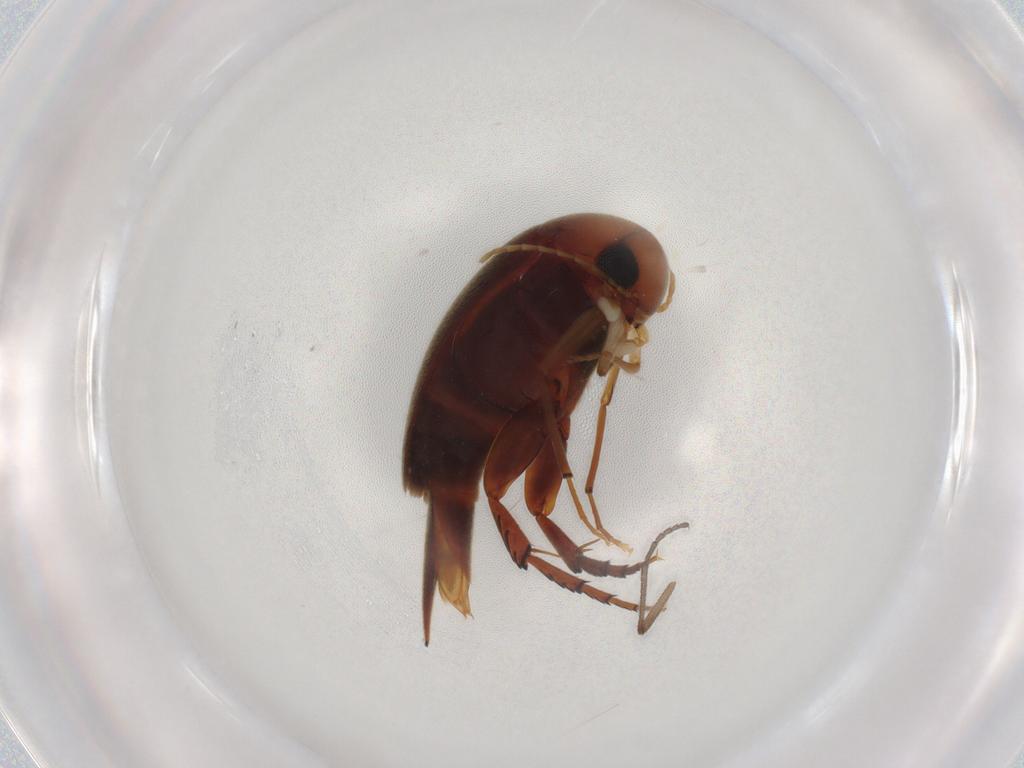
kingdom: Animalia
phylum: Arthropoda
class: Insecta
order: Coleoptera
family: Mordellidae
